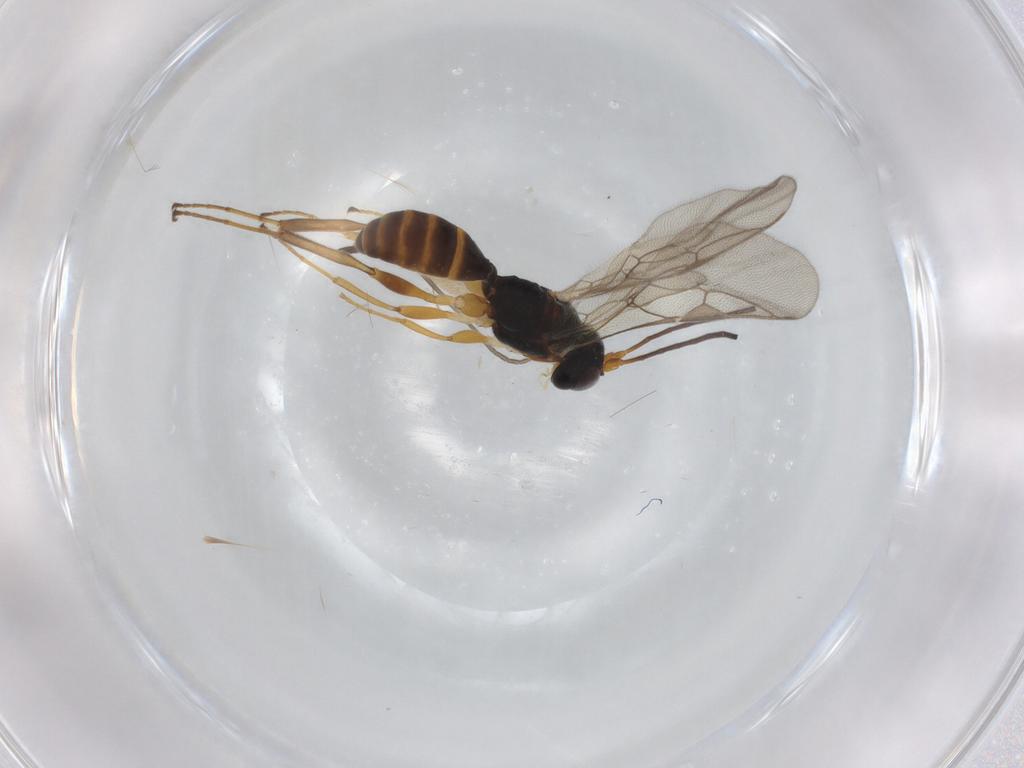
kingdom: Animalia
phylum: Arthropoda
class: Insecta
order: Hymenoptera
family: Ichneumonidae
